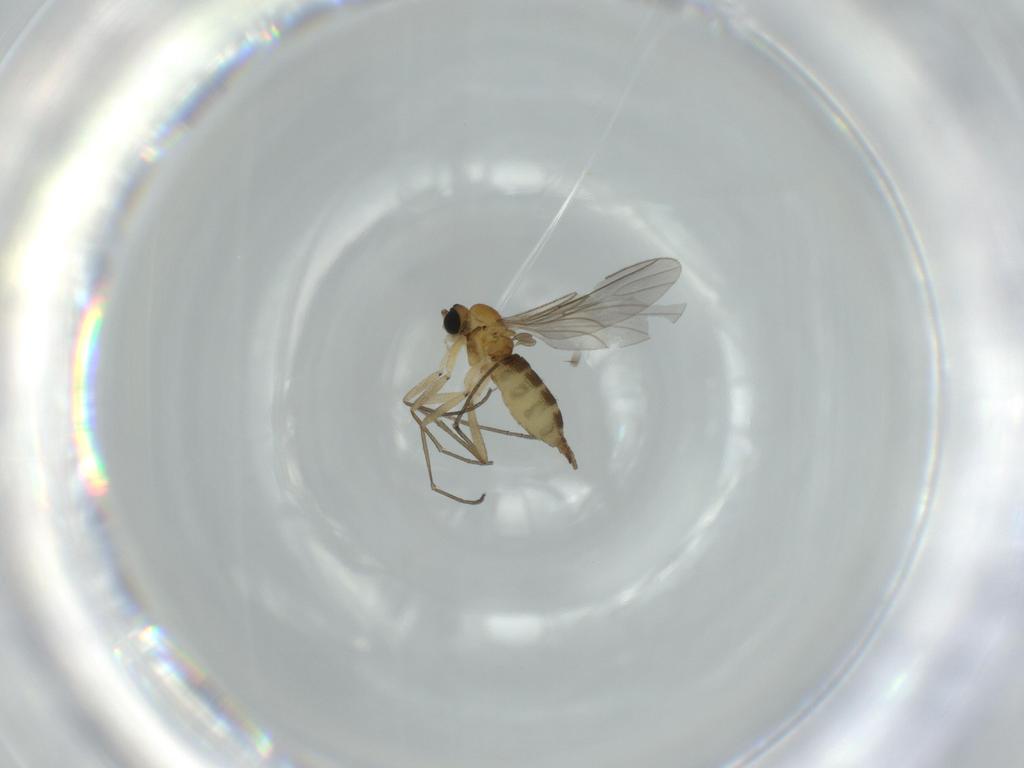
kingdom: Animalia
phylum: Arthropoda
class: Insecta
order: Diptera
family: Sciaridae
